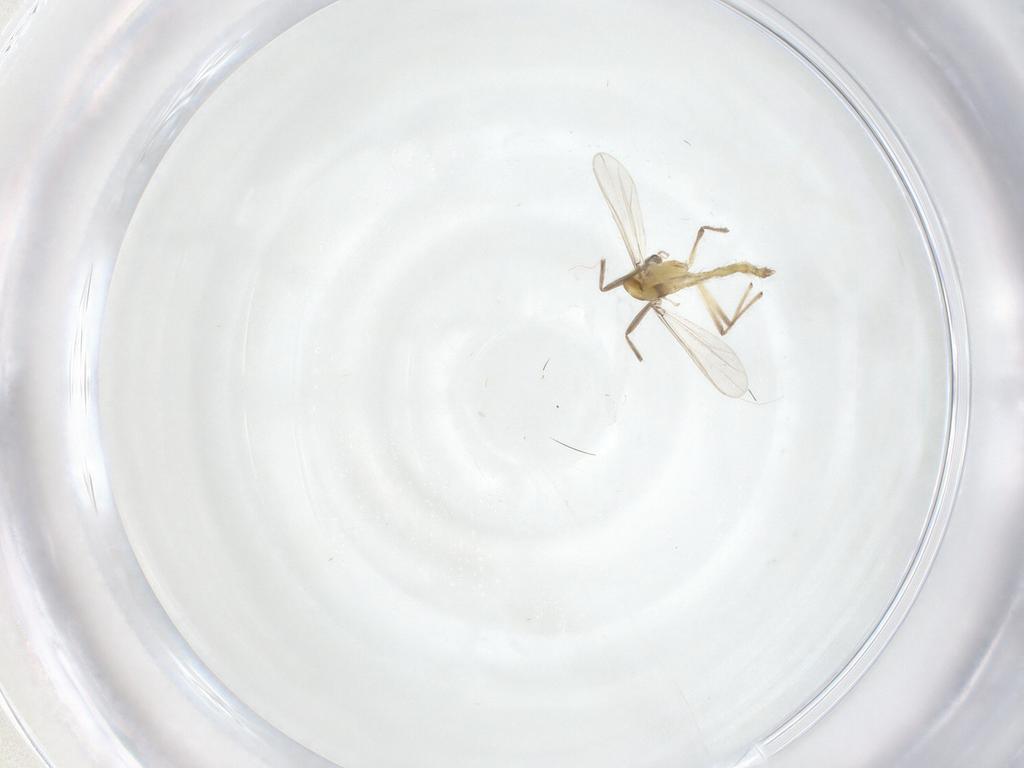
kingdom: Animalia
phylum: Arthropoda
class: Insecta
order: Diptera
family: Chironomidae
